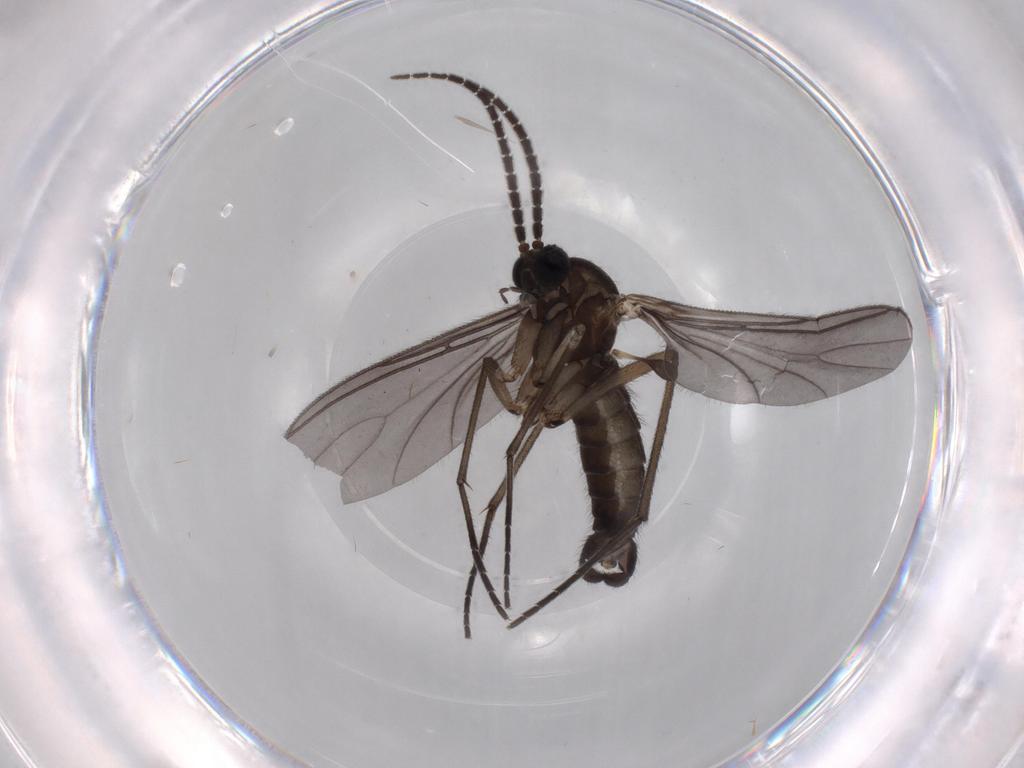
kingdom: Animalia
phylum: Arthropoda
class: Insecta
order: Diptera
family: Sciaridae
